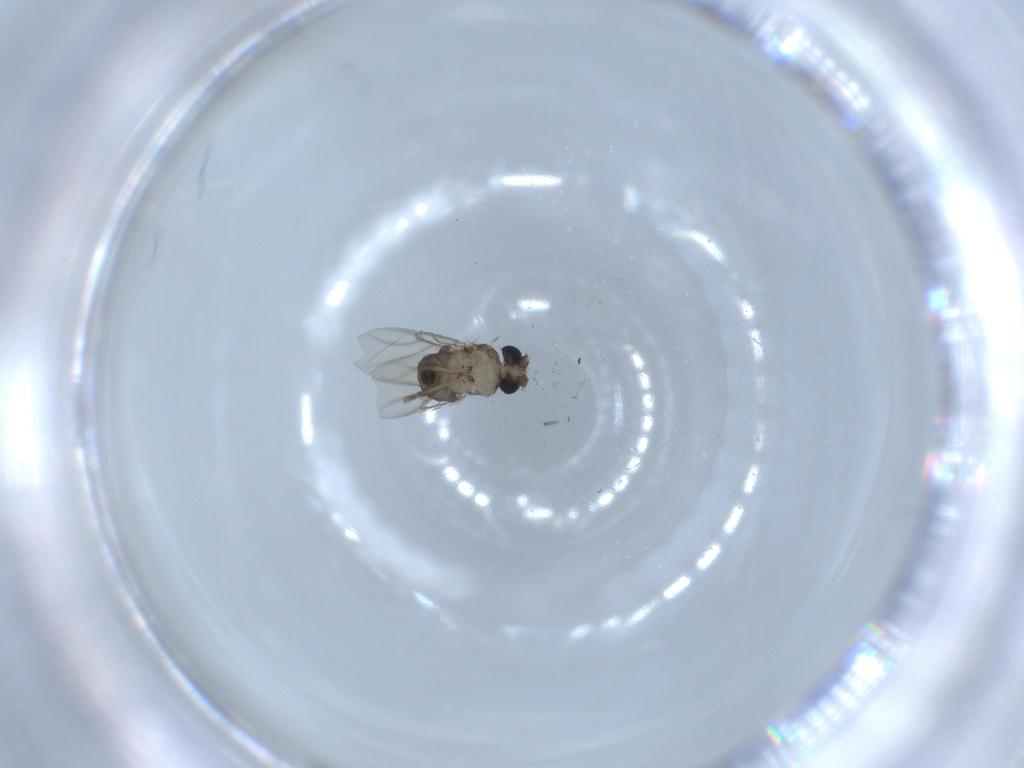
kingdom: Animalia
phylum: Arthropoda
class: Insecta
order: Diptera
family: Phoridae
